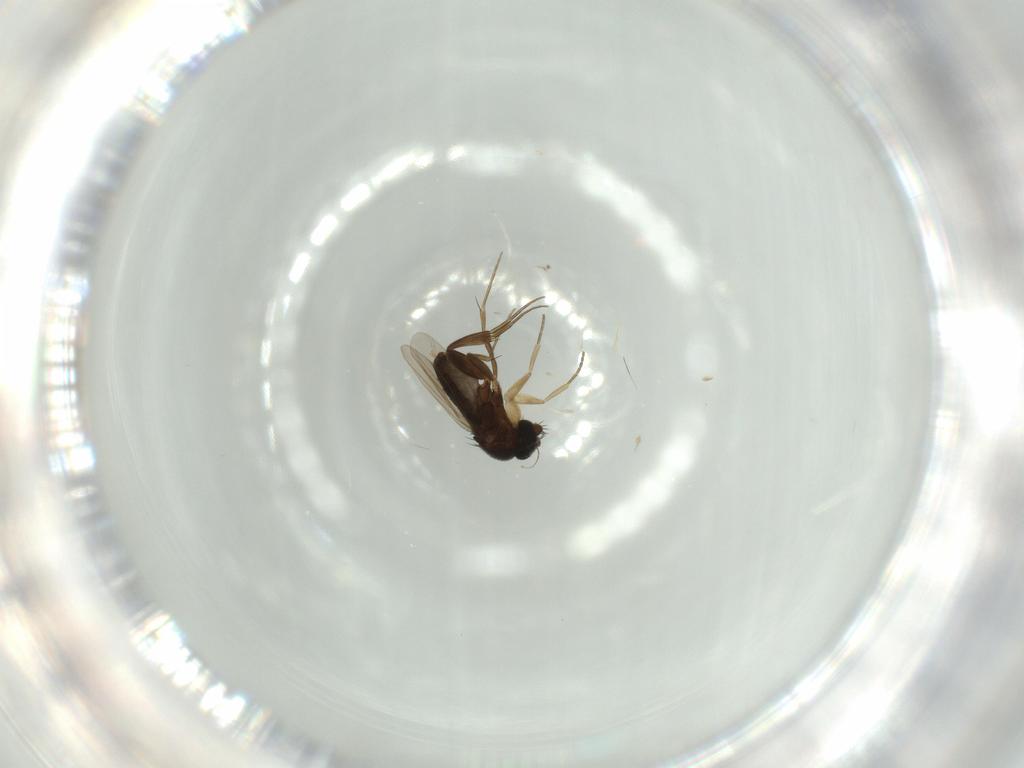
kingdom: Animalia
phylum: Arthropoda
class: Insecta
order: Diptera
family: Phoridae
